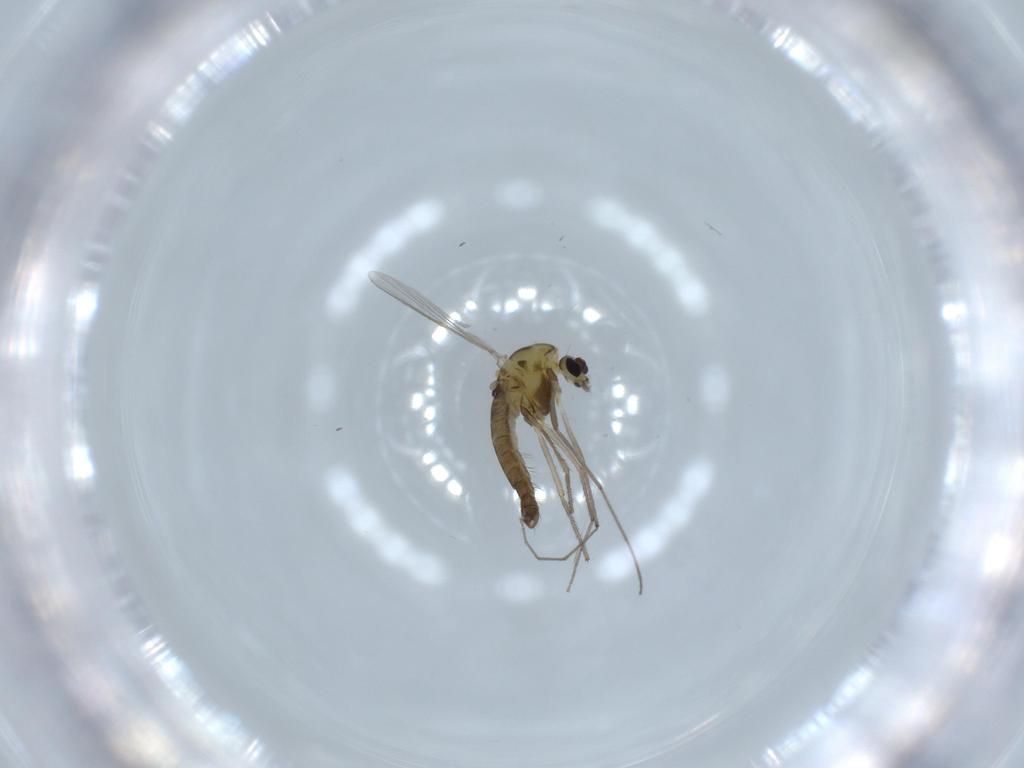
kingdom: Animalia
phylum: Arthropoda
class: Insecta
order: Diptera
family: Chironomidae
